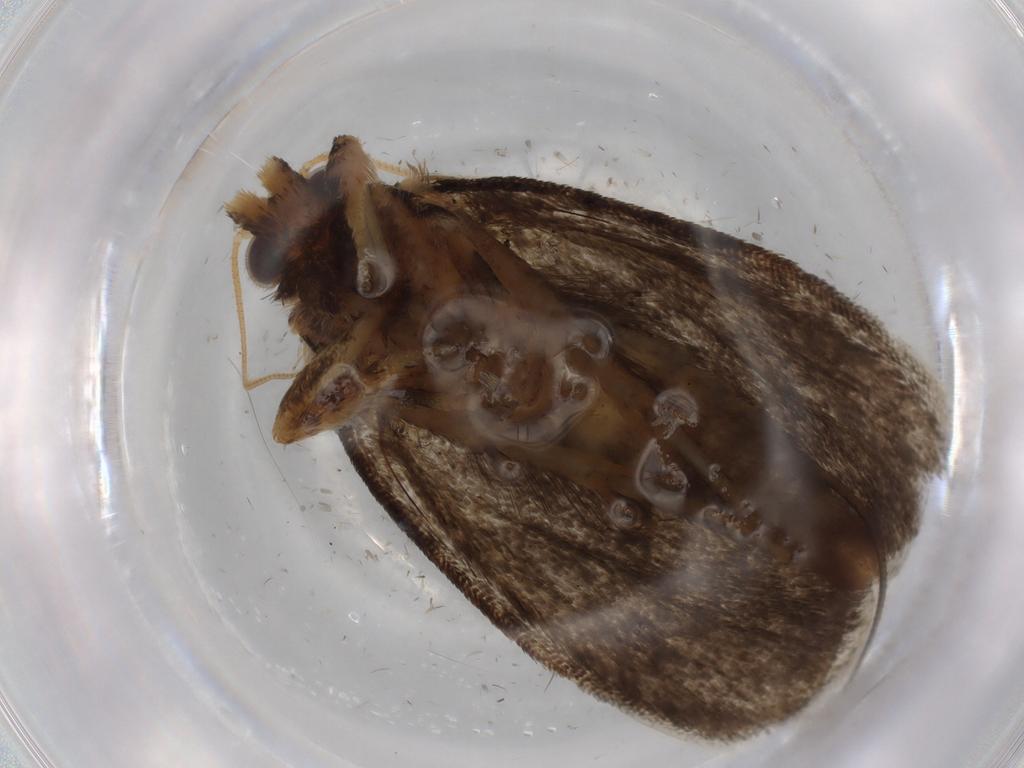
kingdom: Animalia
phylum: Arthropoda
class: Insecta
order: Lepidoptera
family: Tineidae
